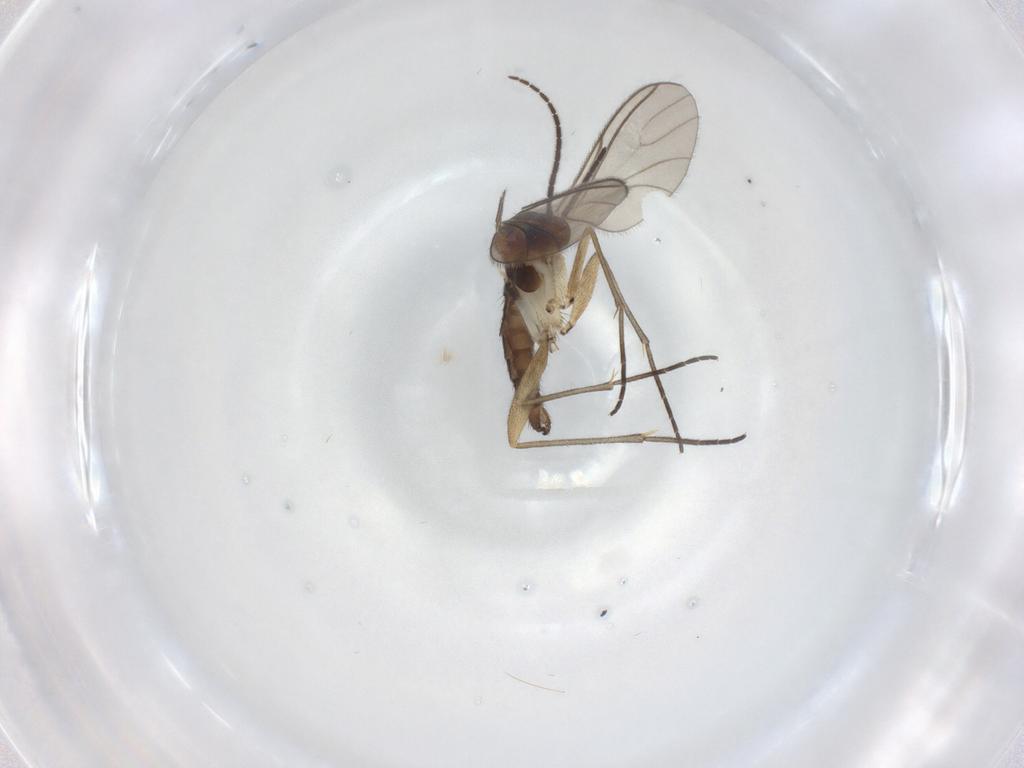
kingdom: Animalia
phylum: Arthropoda
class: Insecta
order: Diptera
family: Sciaridae
